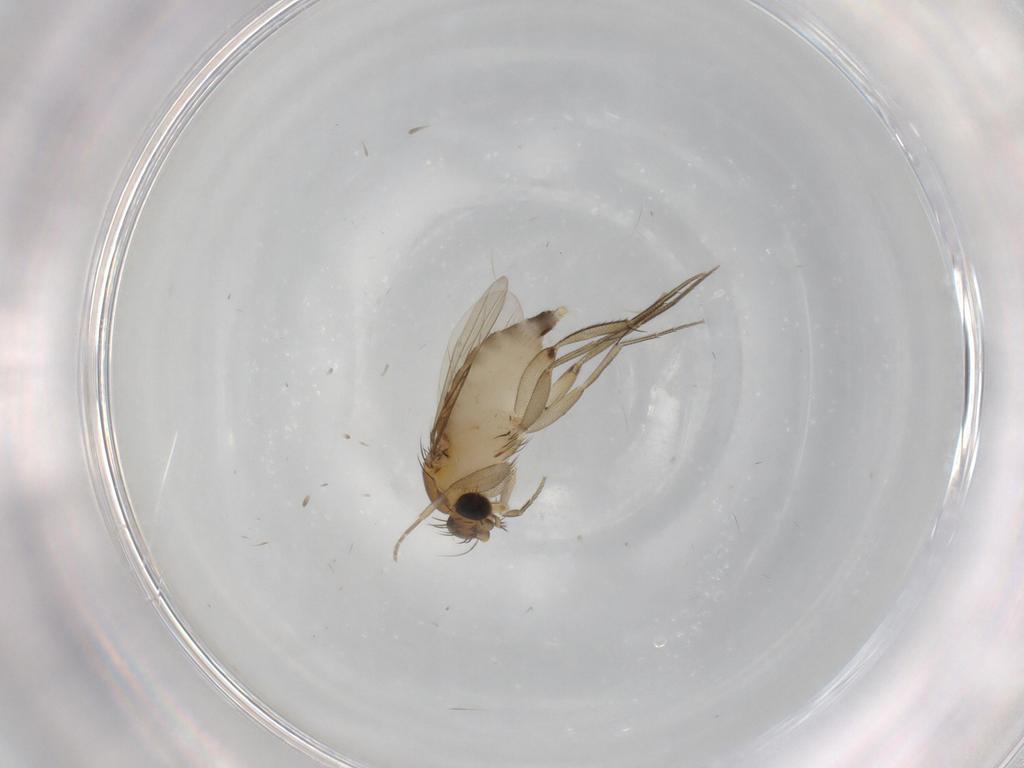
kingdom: Animalia
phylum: Arthropoda
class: Insecta
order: Diptera
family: Phoridae
